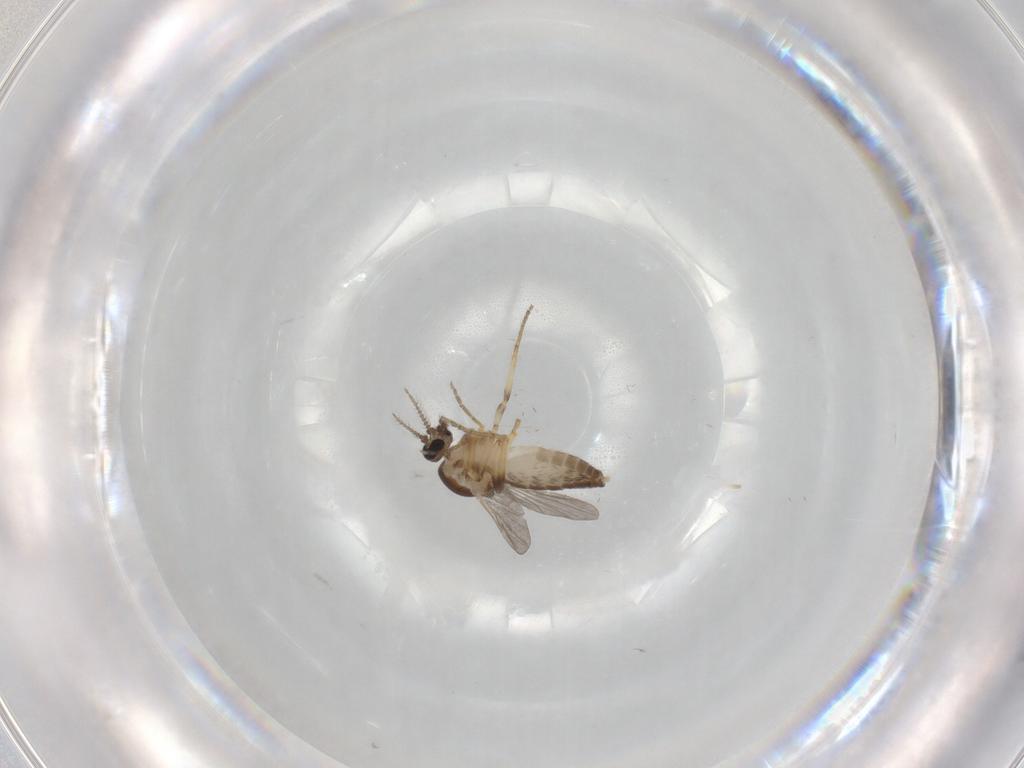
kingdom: Animalia
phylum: Arthropoda
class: Insecta
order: Diptera
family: Ceratopogonidae
